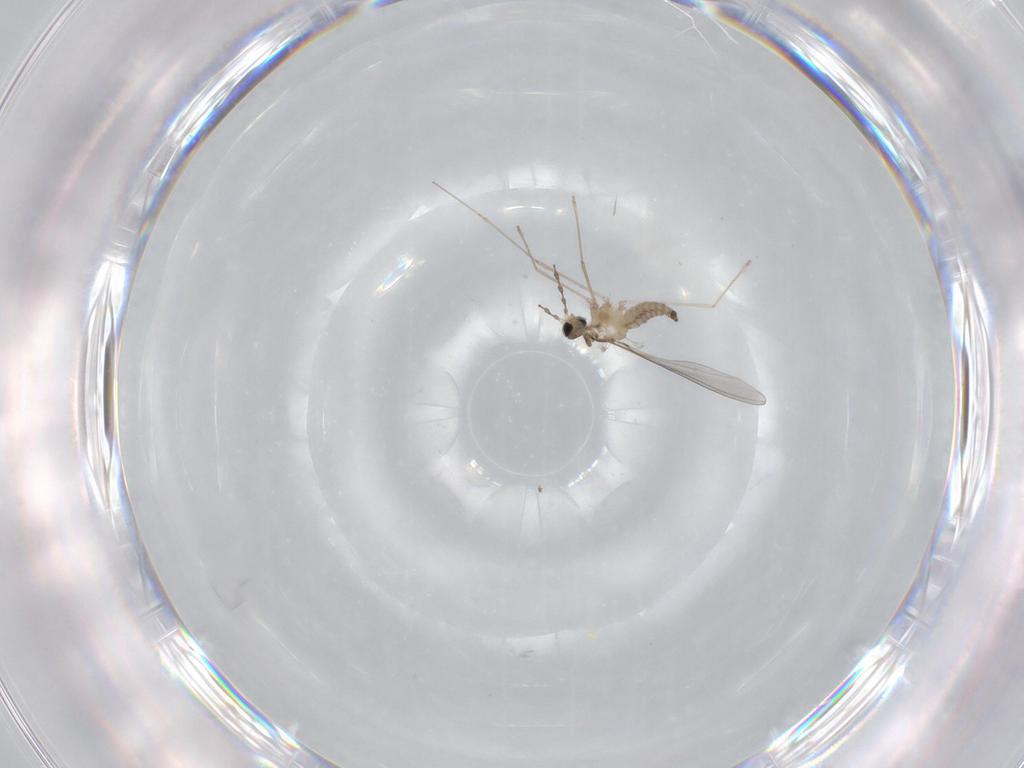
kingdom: Animalia
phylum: Arthropoda
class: Insecta
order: Diptera
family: Cecidomyiidae
